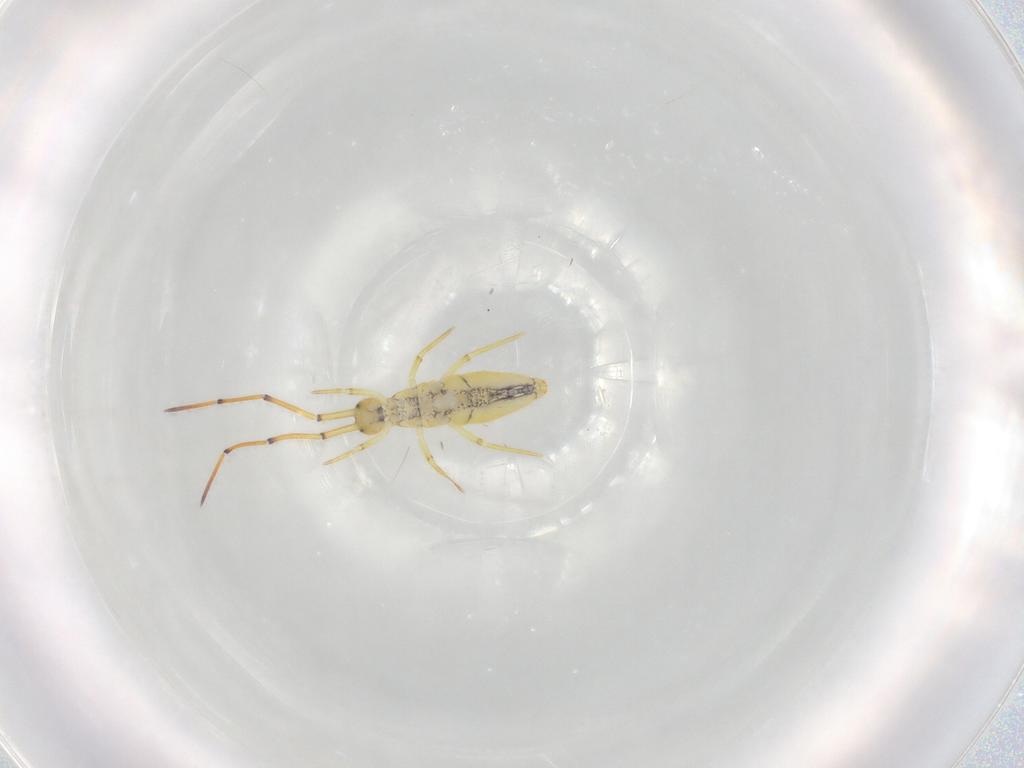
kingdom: Animalia
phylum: Arthropoda
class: Collembola
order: Entomobryomorpha
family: Entomobryidae
